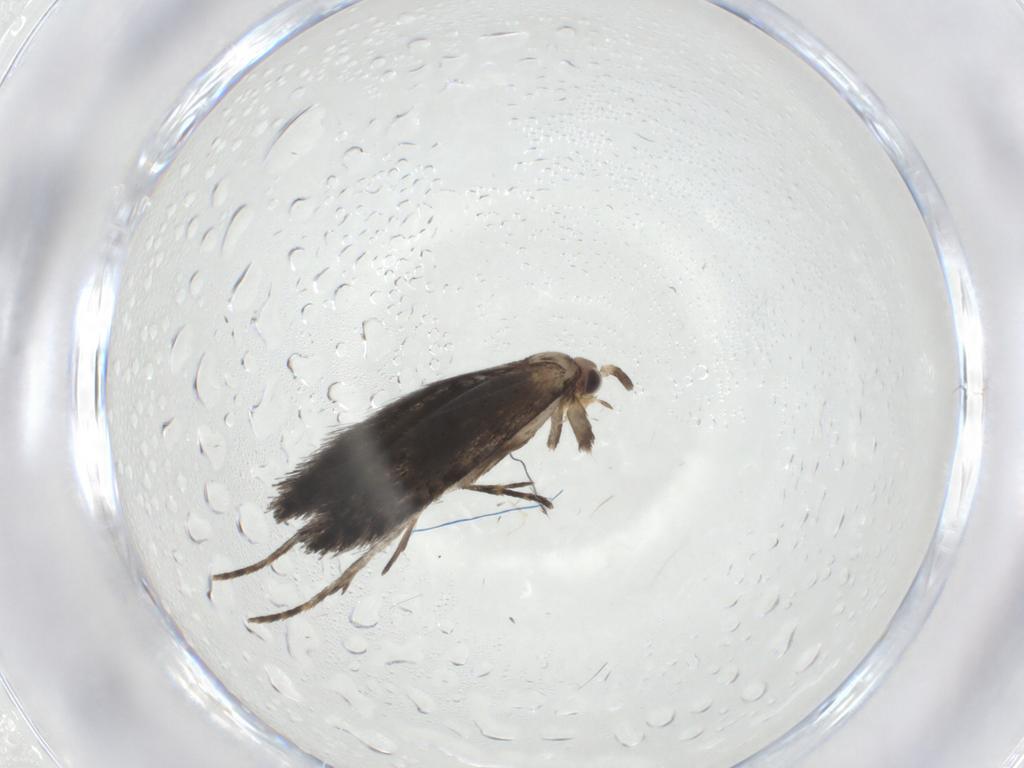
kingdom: Animalia
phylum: Arthropoda
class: Insecta
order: Lepidoptera
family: Tineidae
